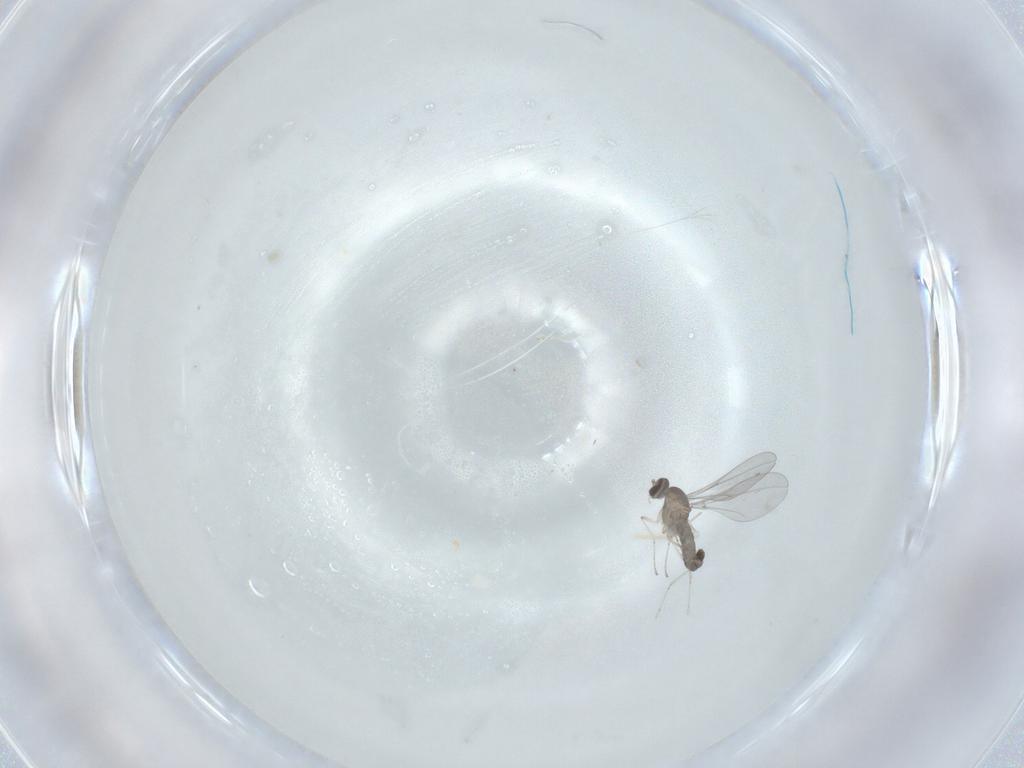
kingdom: Animalia
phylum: Arthropoda
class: Insecta
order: Diptera
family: Cecidomyiidae
